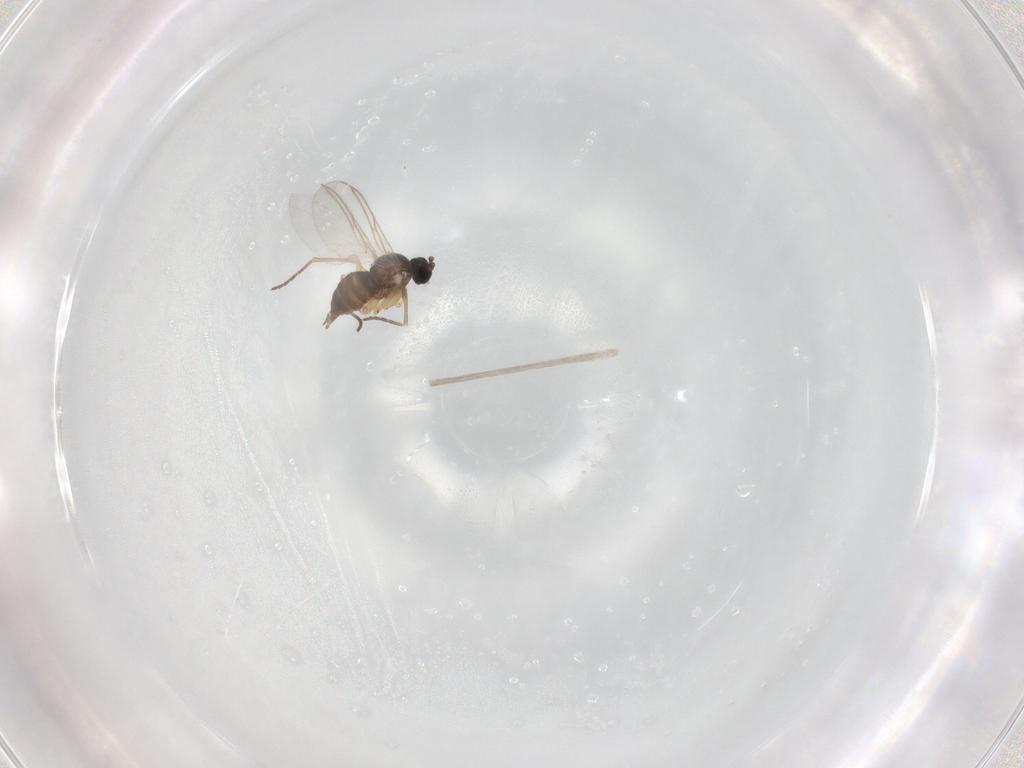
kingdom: Animalia
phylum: Arthropoda
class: Insecta
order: Diptera
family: Sciaridae
